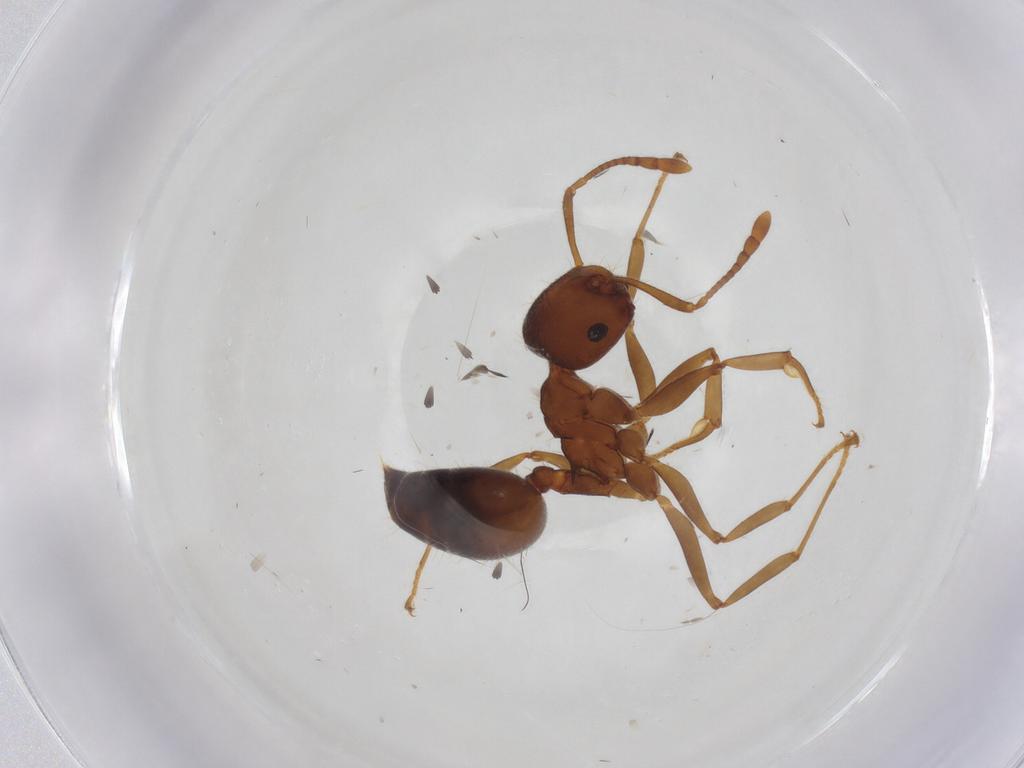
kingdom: Animalia
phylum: Arthropoda
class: Insecta
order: Hymenoptera
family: Formicidae
